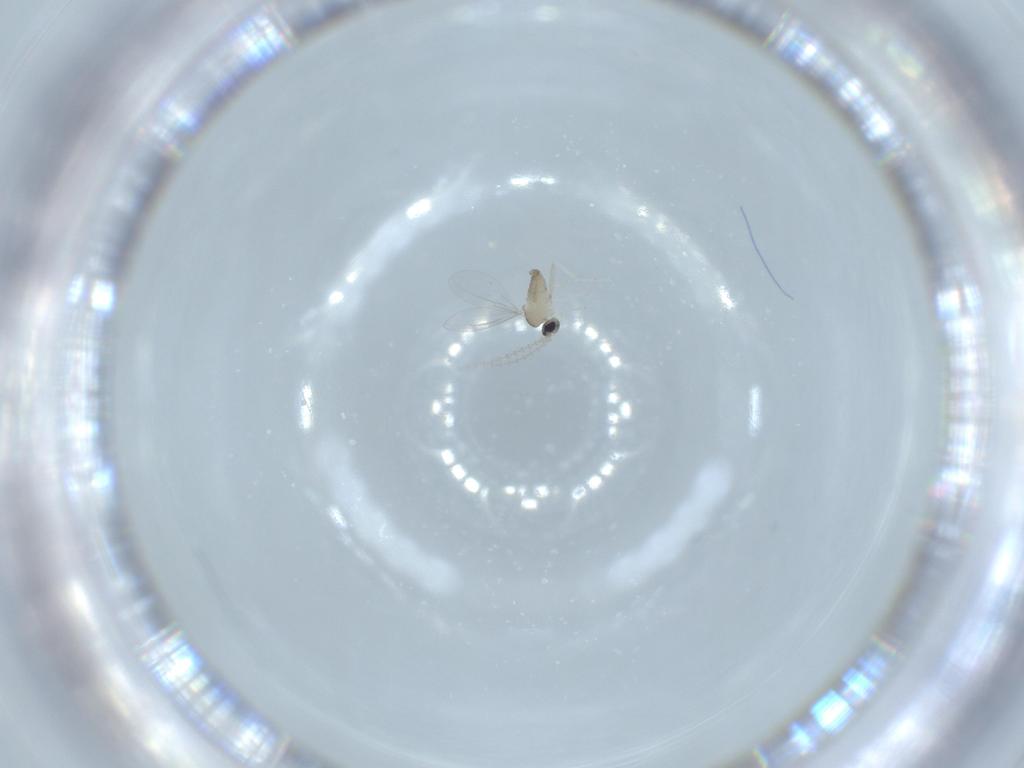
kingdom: Animalia
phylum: Arthropoda
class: Insecta
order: Diptera
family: Cecidomyiidae
